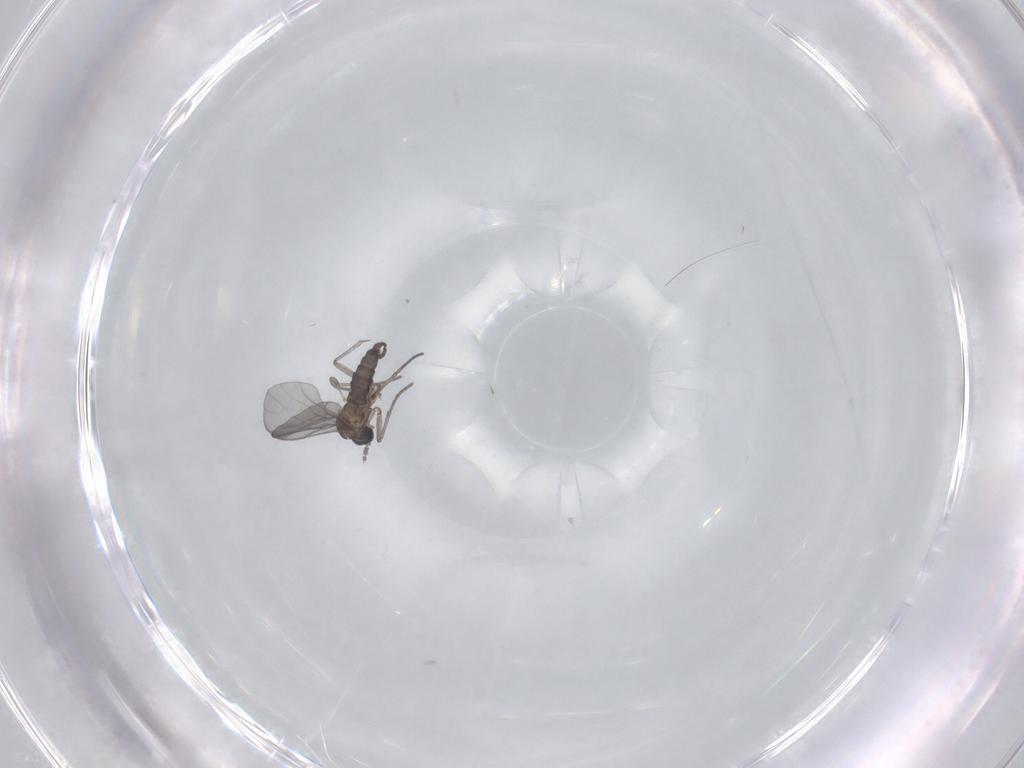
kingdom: Animalia
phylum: Arthropoda
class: Insecta
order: Diptera
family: Sciaridae
